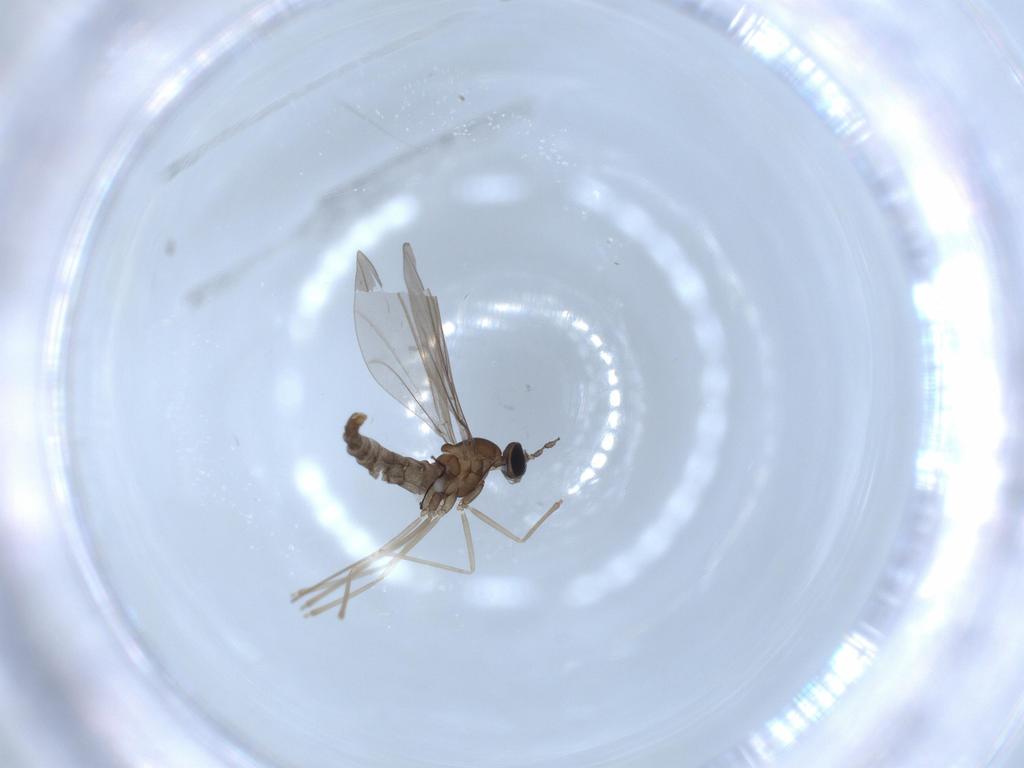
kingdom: Animalia
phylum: Arthropoda
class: Insecta
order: Diptera
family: Cecidomyiidae
